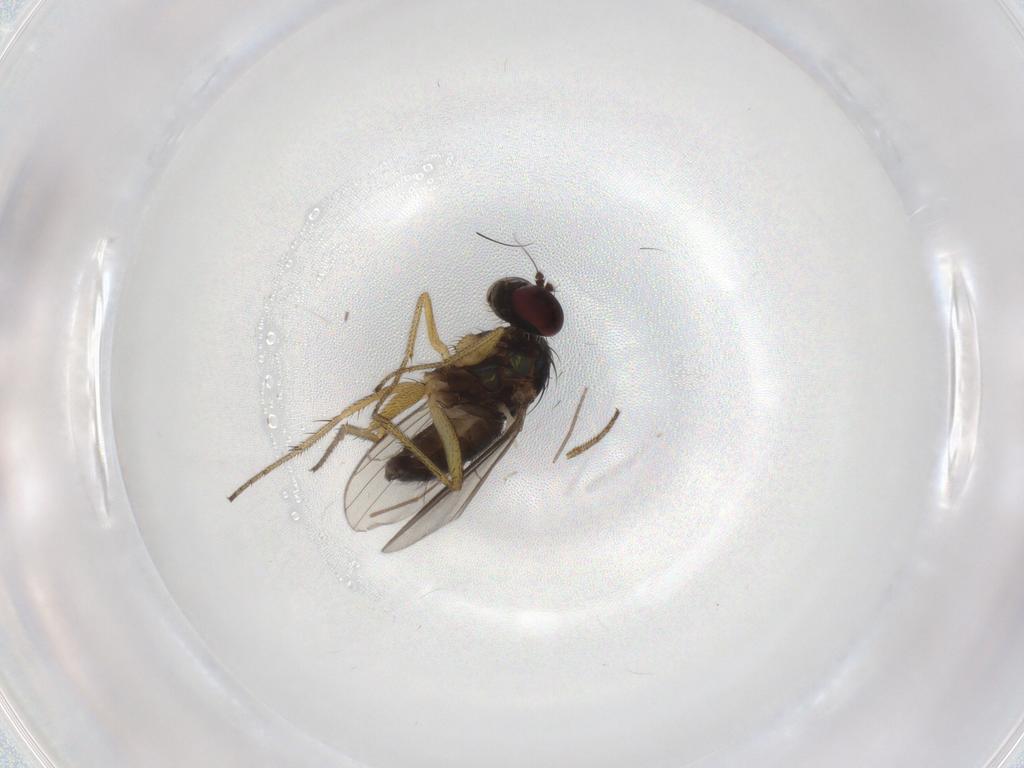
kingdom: Animalia
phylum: Arthropoda
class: Insecta
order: Diptera
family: Chironomidae
